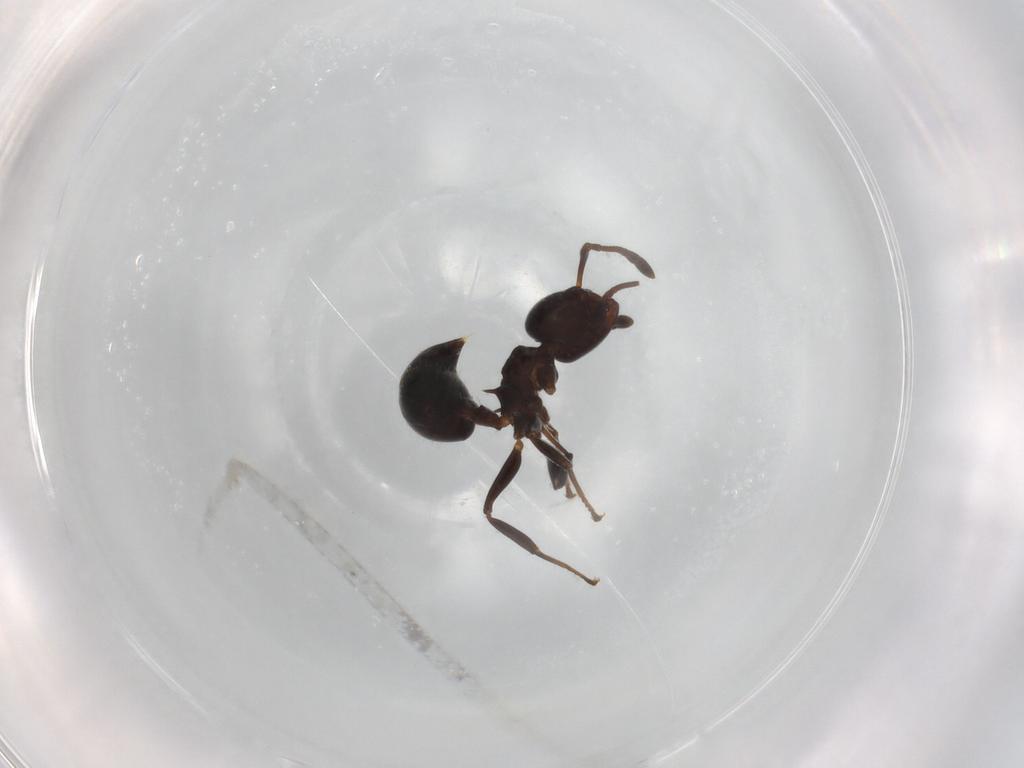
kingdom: Animalia
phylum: Arthropoda
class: Insecta
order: Hymenoptera
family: Formicidae
